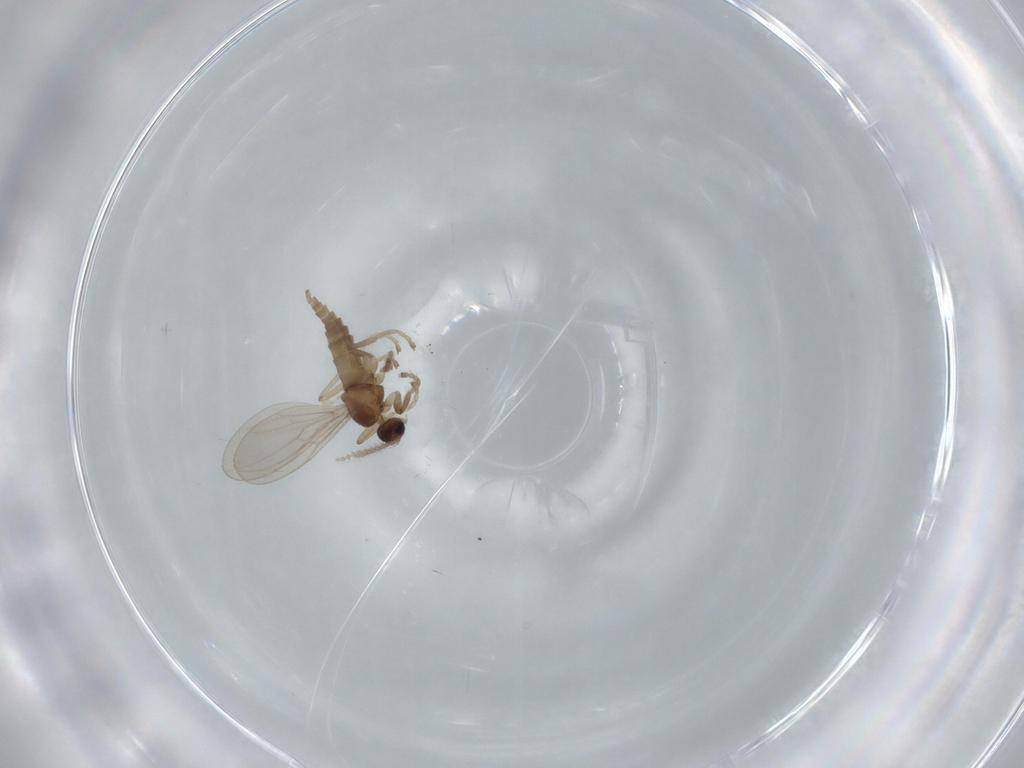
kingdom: Animalia
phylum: Arthropoda
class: Insecta
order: Diptera
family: Cecidomyiidae
